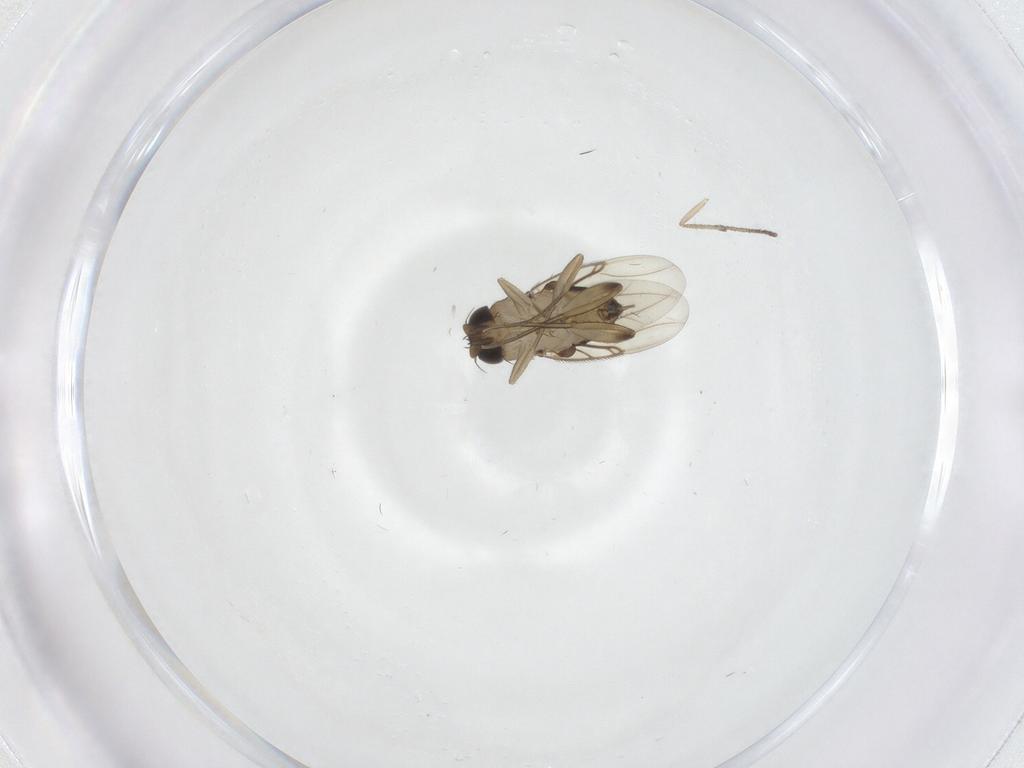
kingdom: Animalia
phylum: Arthropoda
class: Insecta
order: Diptera
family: Phoridae
